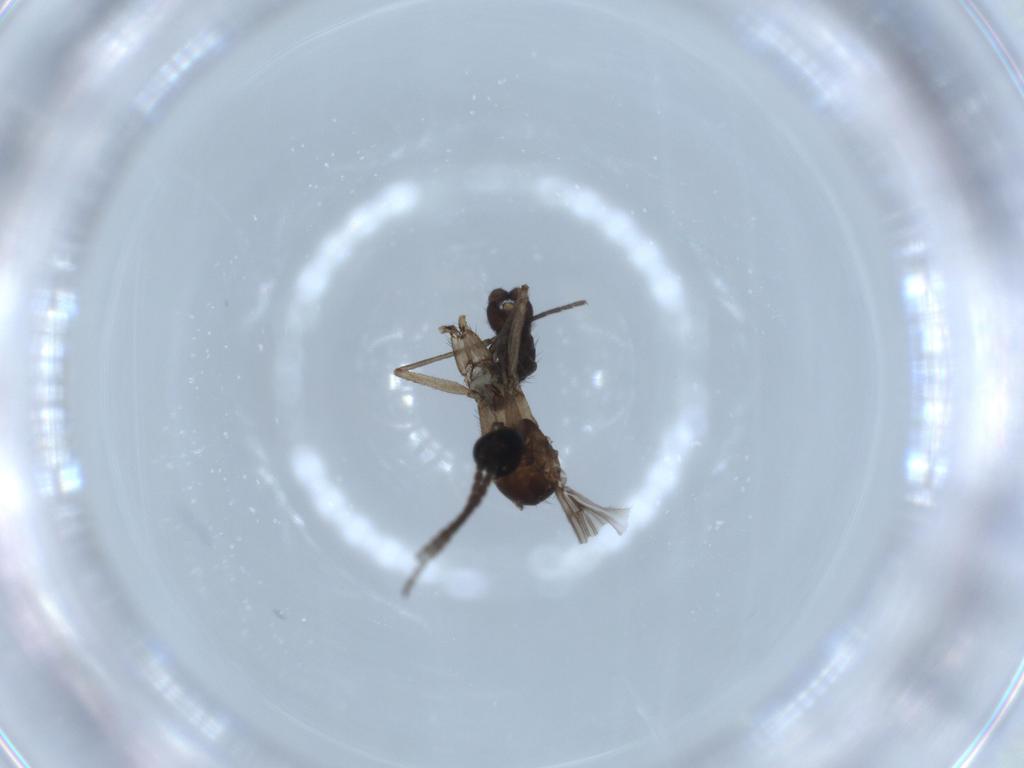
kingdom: Animalia
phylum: Arthropoda
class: Insecta
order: Diptera
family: Sciaridae
